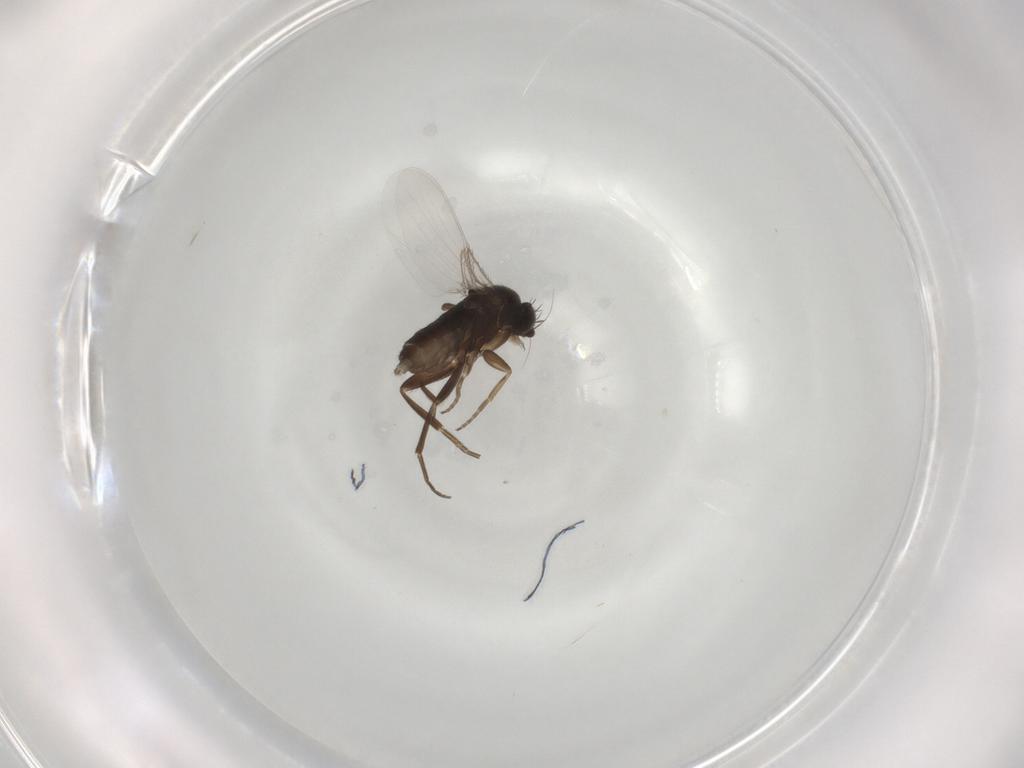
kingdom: Animalia
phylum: Arthropoda
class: Insecta
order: Diptera
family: Phoridae
